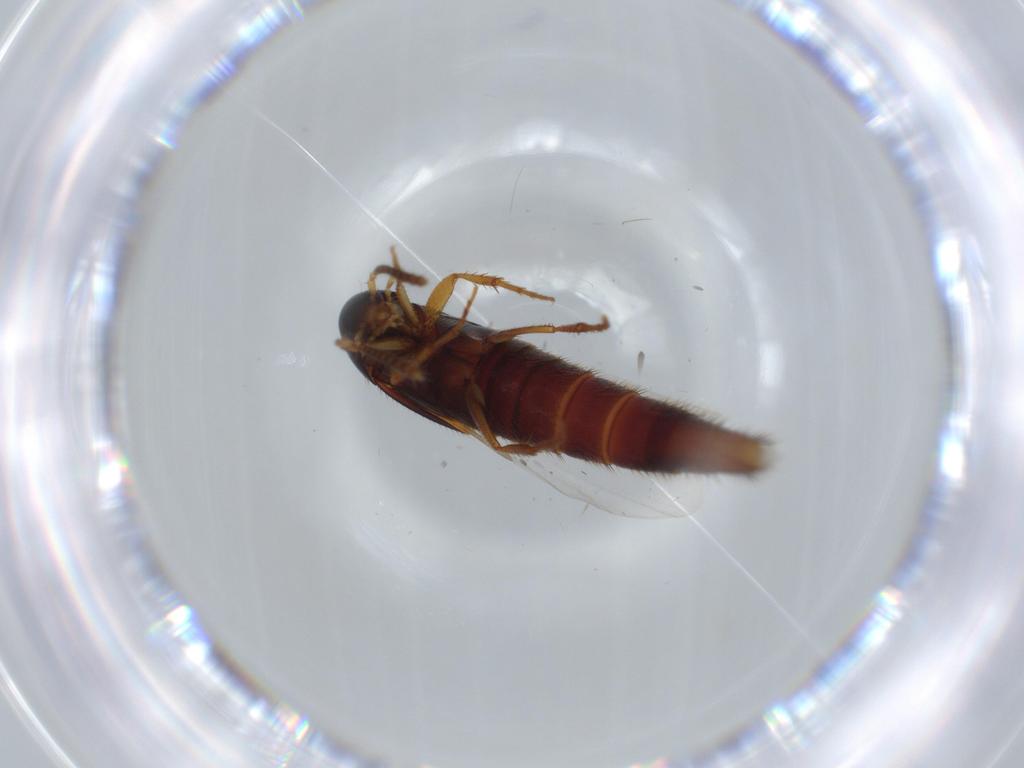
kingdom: Animalia
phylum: Arthropoda
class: Insecta
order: Coleoptera
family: Staphylinidae
